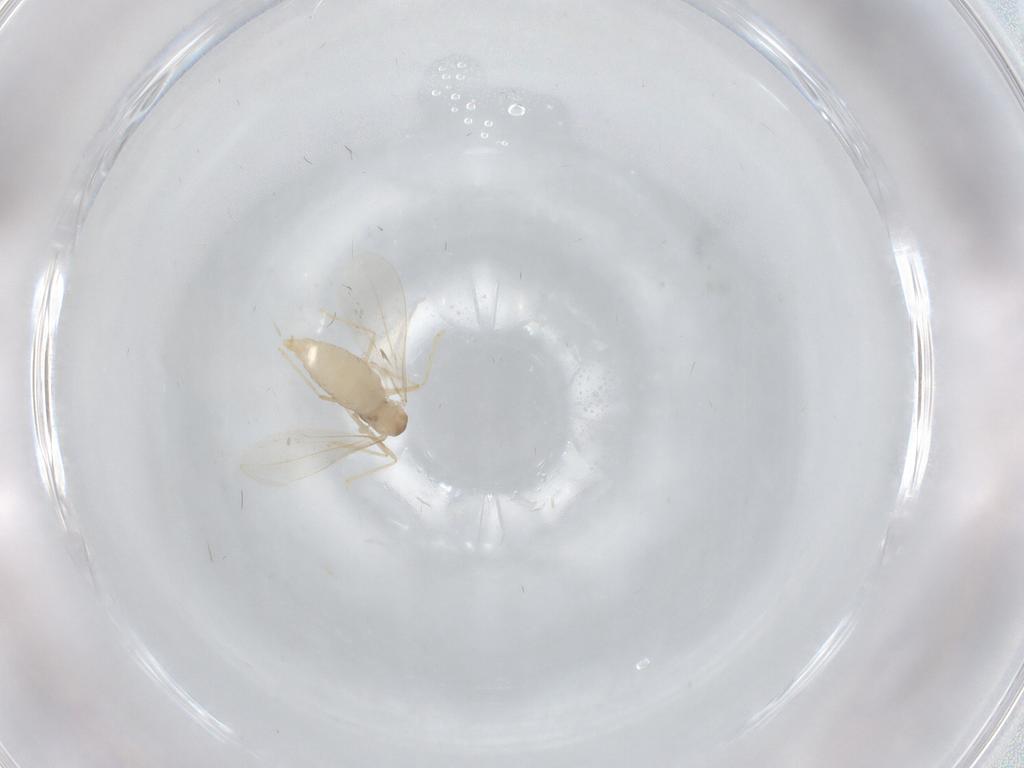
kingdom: Animalia
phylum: Arthropoda
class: Insecta
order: Diptera
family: Cecidomyiidae
